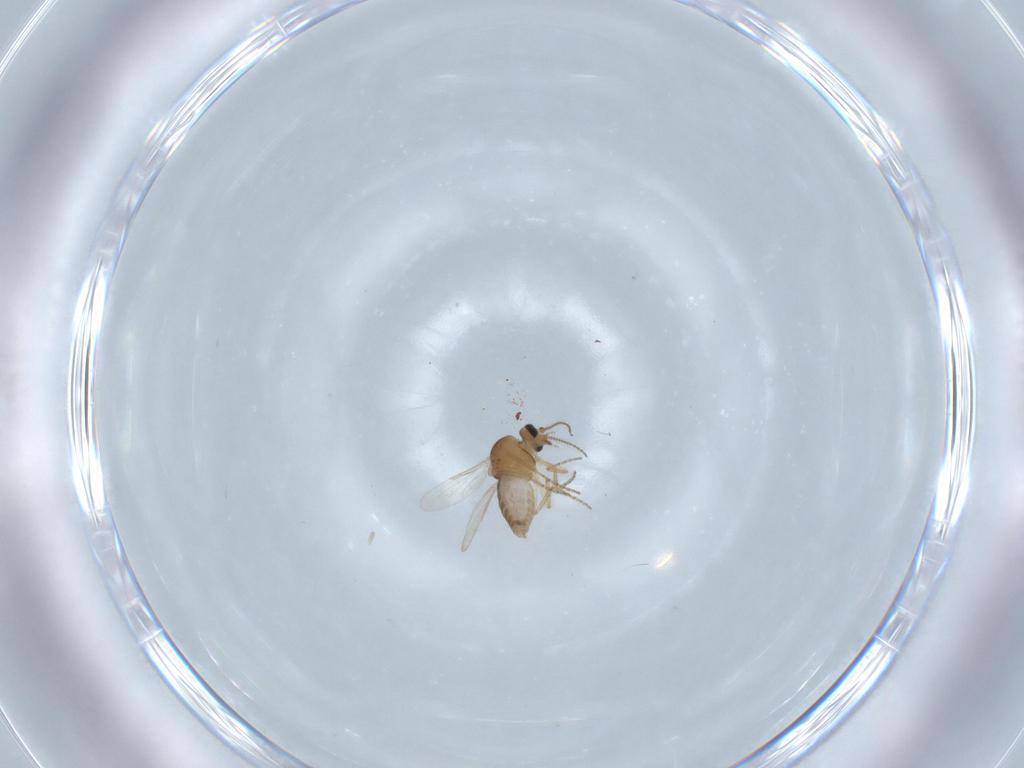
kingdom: Animalia
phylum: Arthropoda
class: Insecta
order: Diptera
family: Ceratopogonidae
